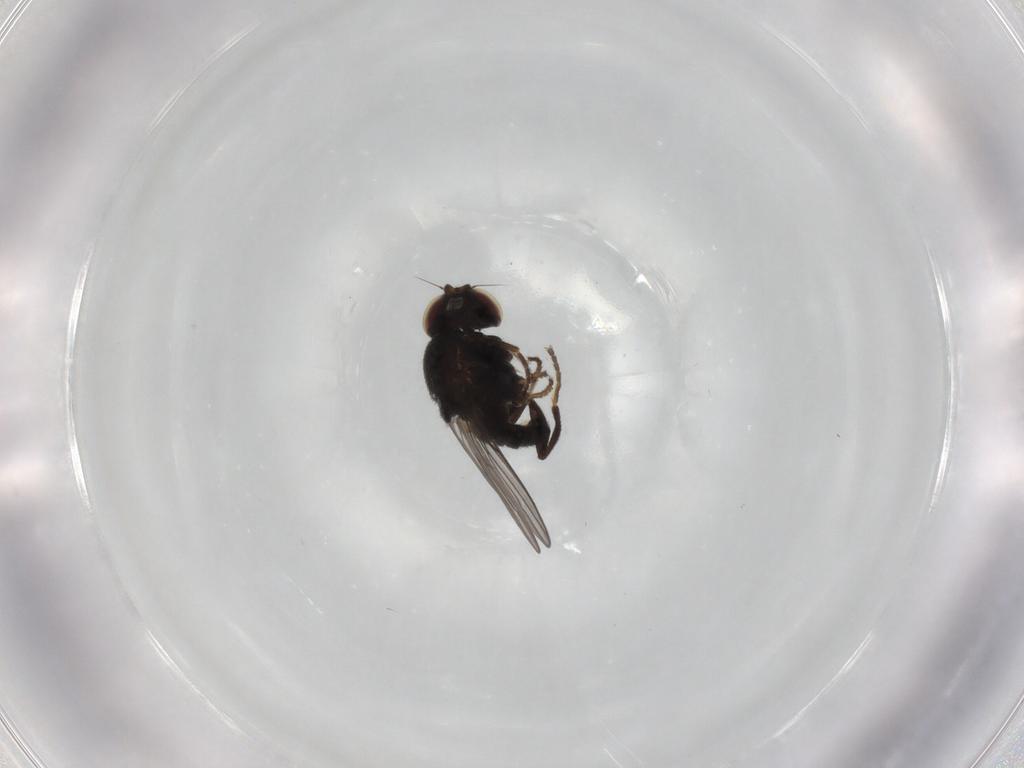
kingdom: Animalia
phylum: Arthropoda
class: Insecta
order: Diptera
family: Chloropidae
